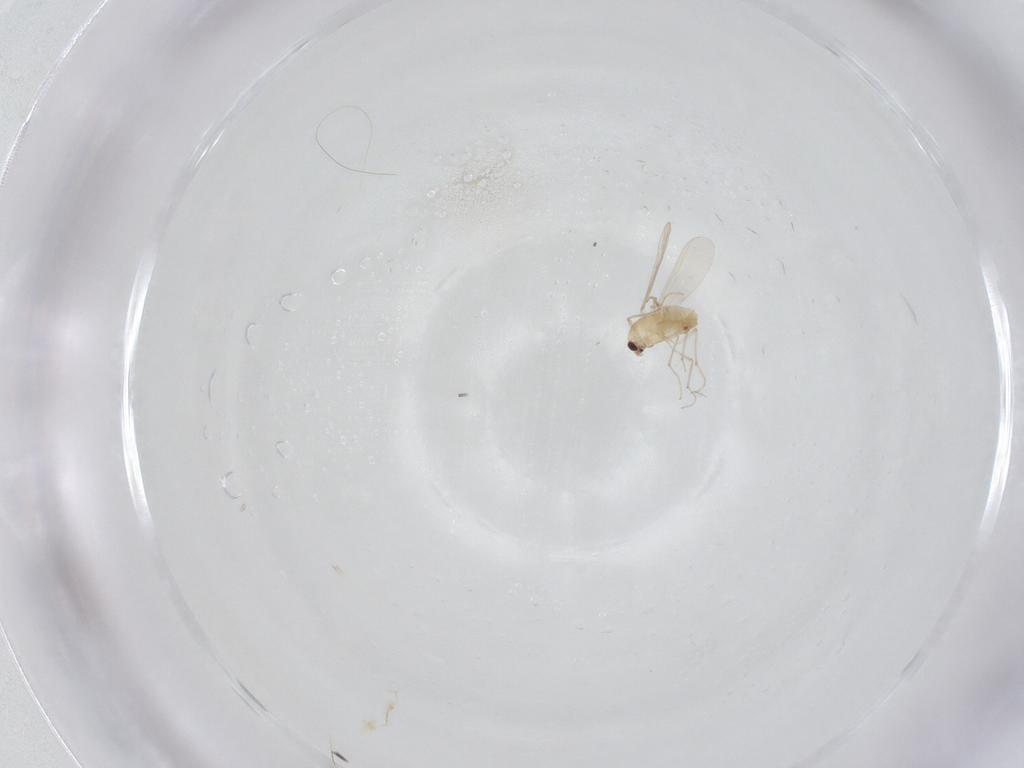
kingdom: Animalia
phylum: Arthropoda
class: Insecta
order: Diptera
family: Chironomidae
